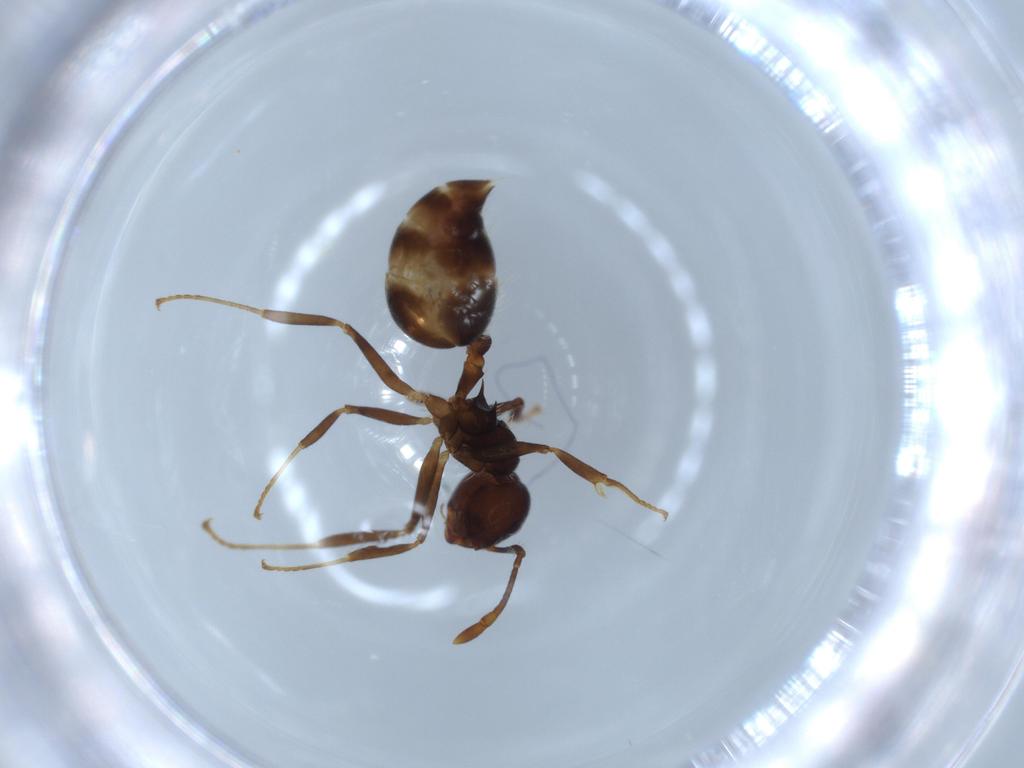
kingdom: Animalia
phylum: Arthropoda
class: Insecta
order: Hymenoptera
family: Formicidae
